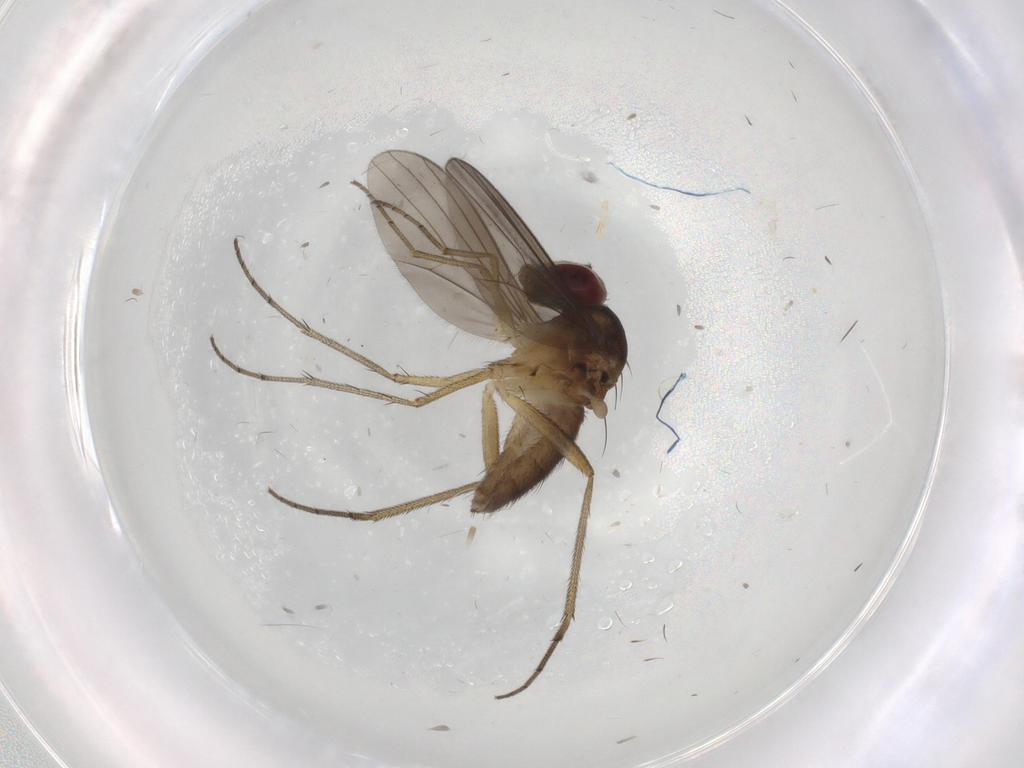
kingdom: Animalia
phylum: Arthropoda
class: Insecta
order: Diptera
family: Dolichopodidae
